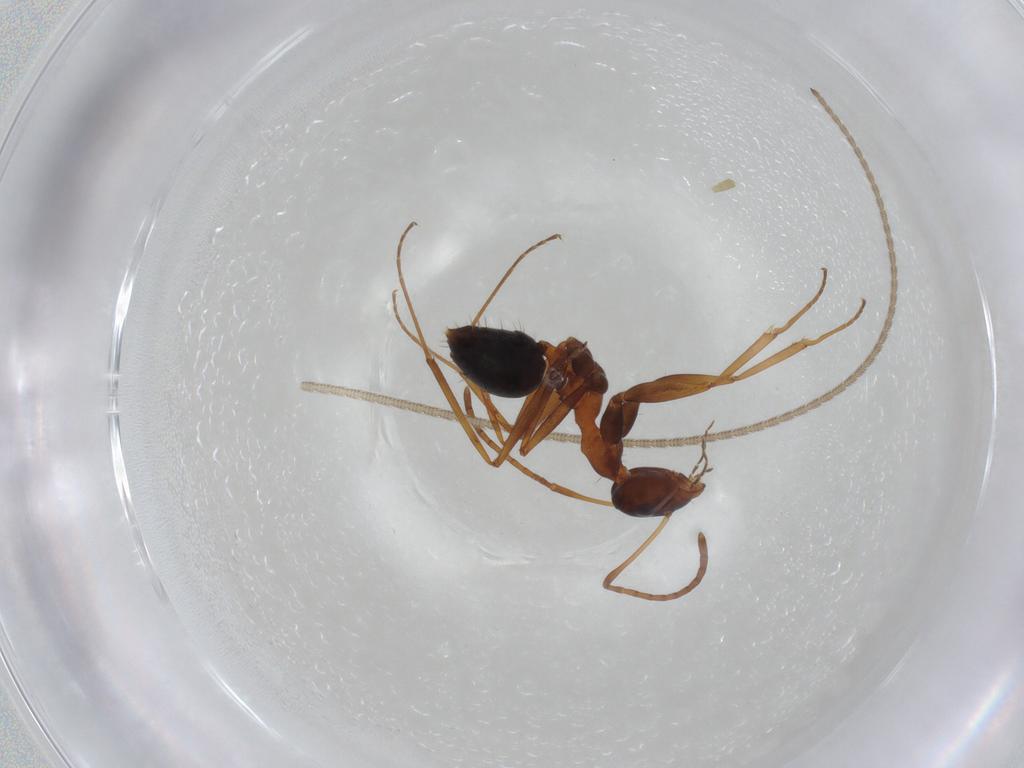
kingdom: Animalia
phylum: Arthropoda
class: Insecta
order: Hymenoptera
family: Formicidae
